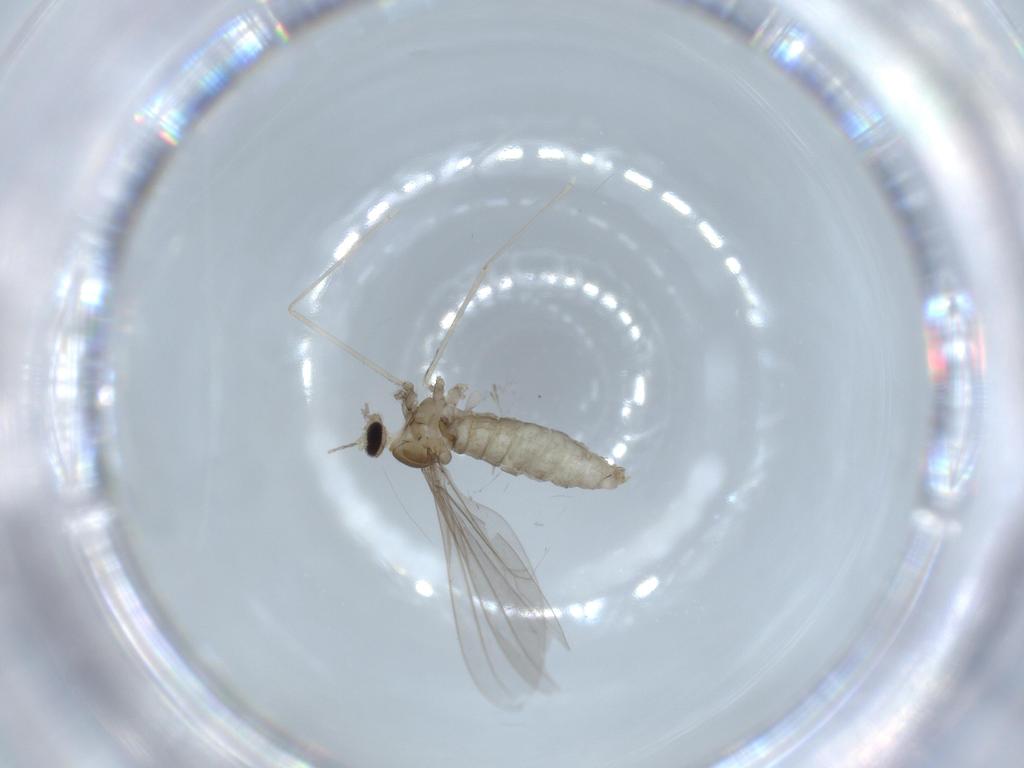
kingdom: Animalia
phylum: Arthropoda
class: Insecta
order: Diptera
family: Cecidomyiidae
